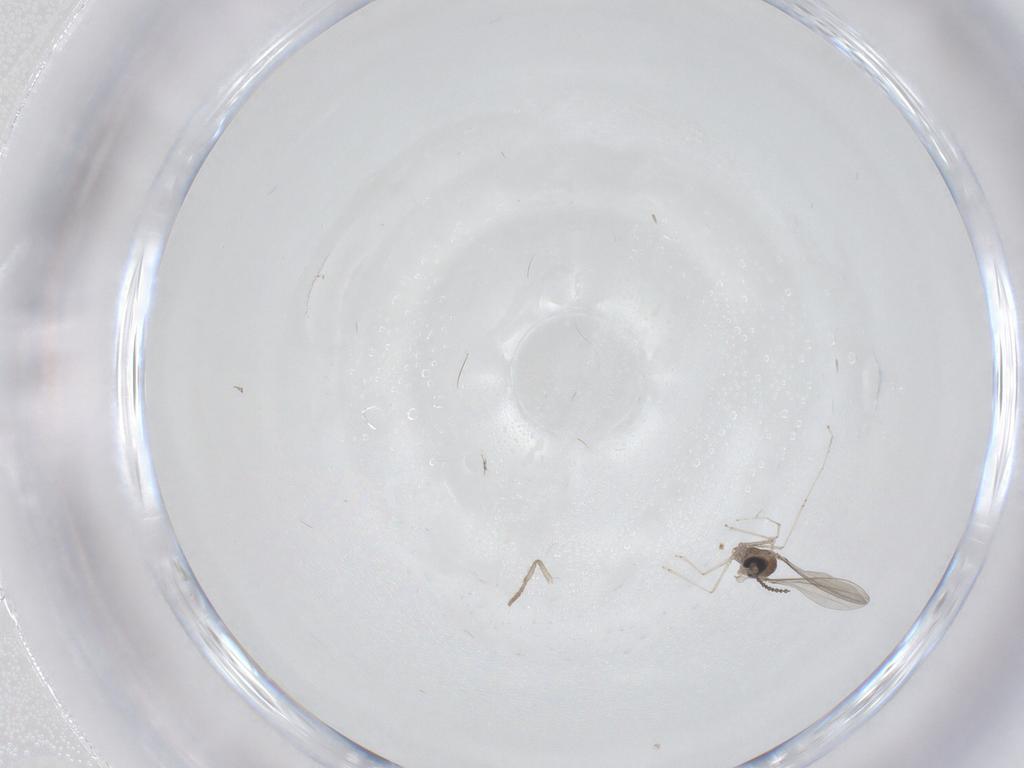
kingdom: Animalia
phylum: Arthropoda
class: Insecta
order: Diptera
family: Cecidomyiidae
